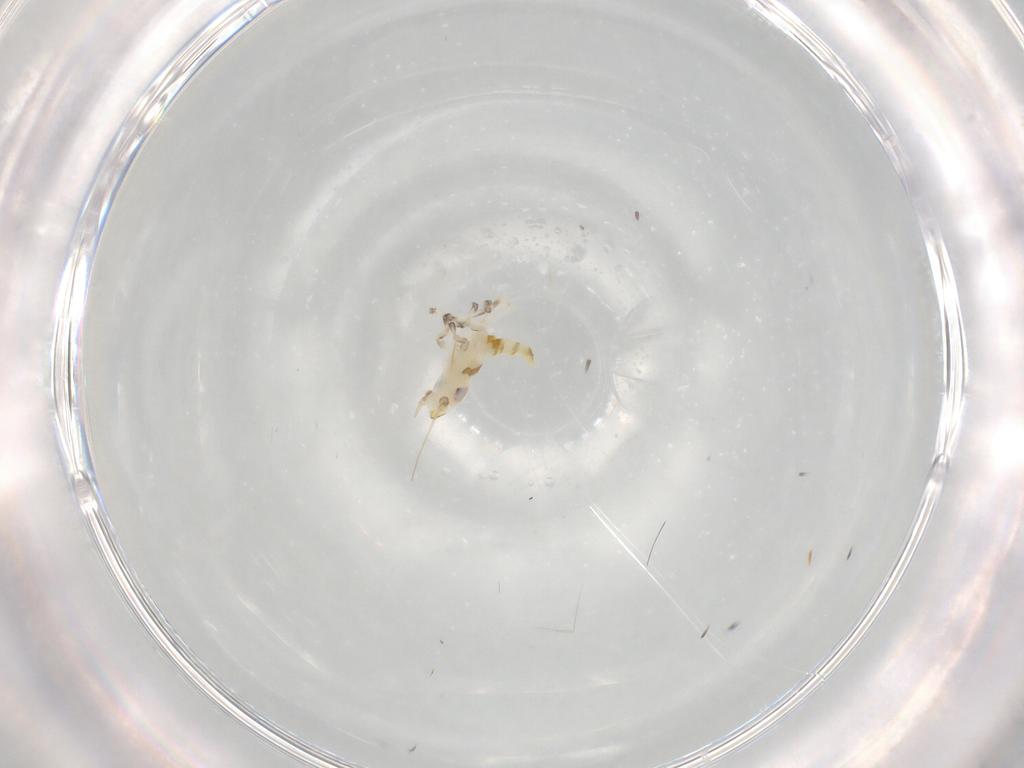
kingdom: Animalia
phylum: Arthropoda
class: Insecta
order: Hemiptera
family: Cicadellidae
